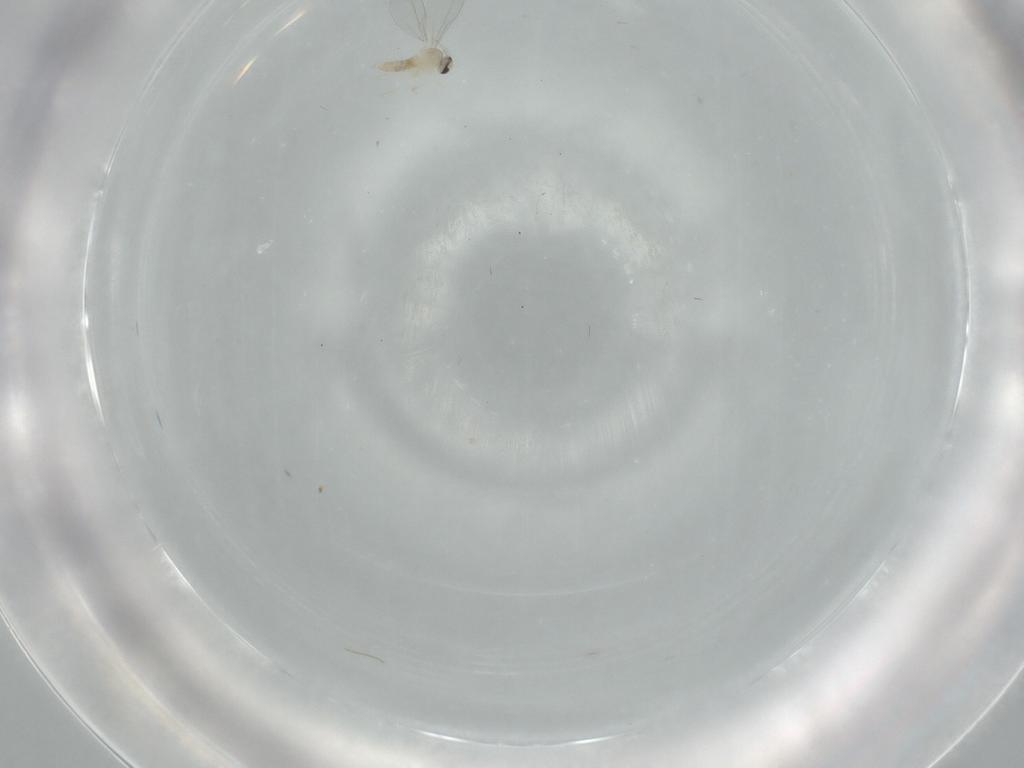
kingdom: Animalia
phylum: Arthropoda
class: Insecta
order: Diptera
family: Cecidomyiidae
